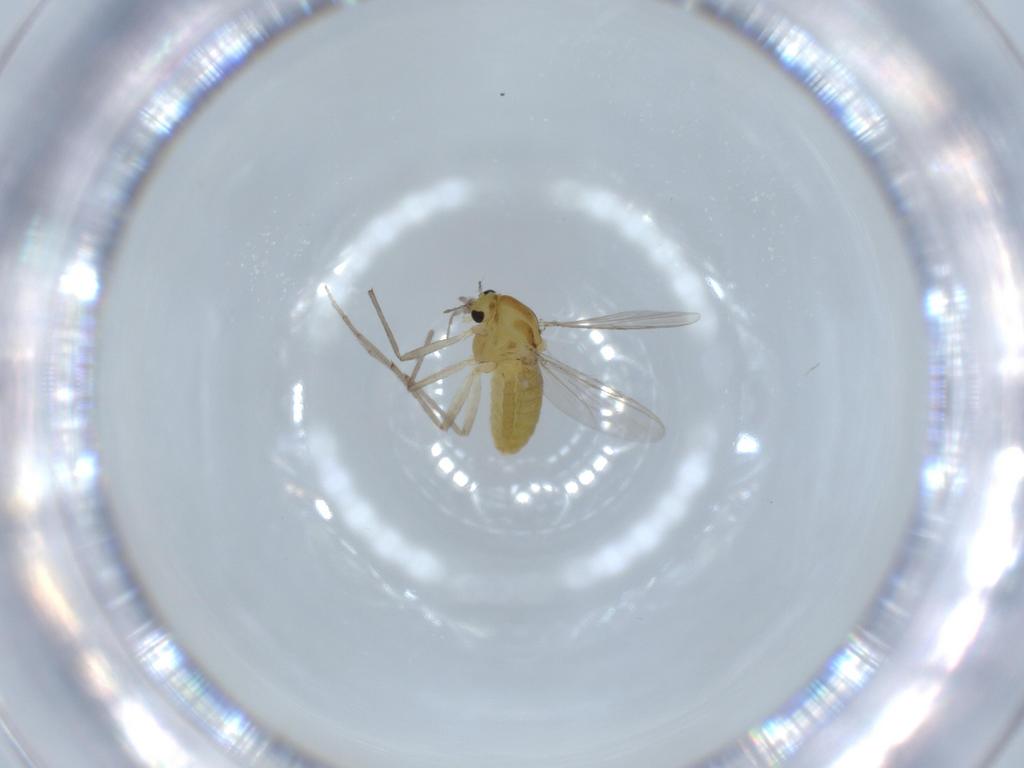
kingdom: Animalia
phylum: Arthropoda
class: Insecta
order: Diptera
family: Chironomidae
